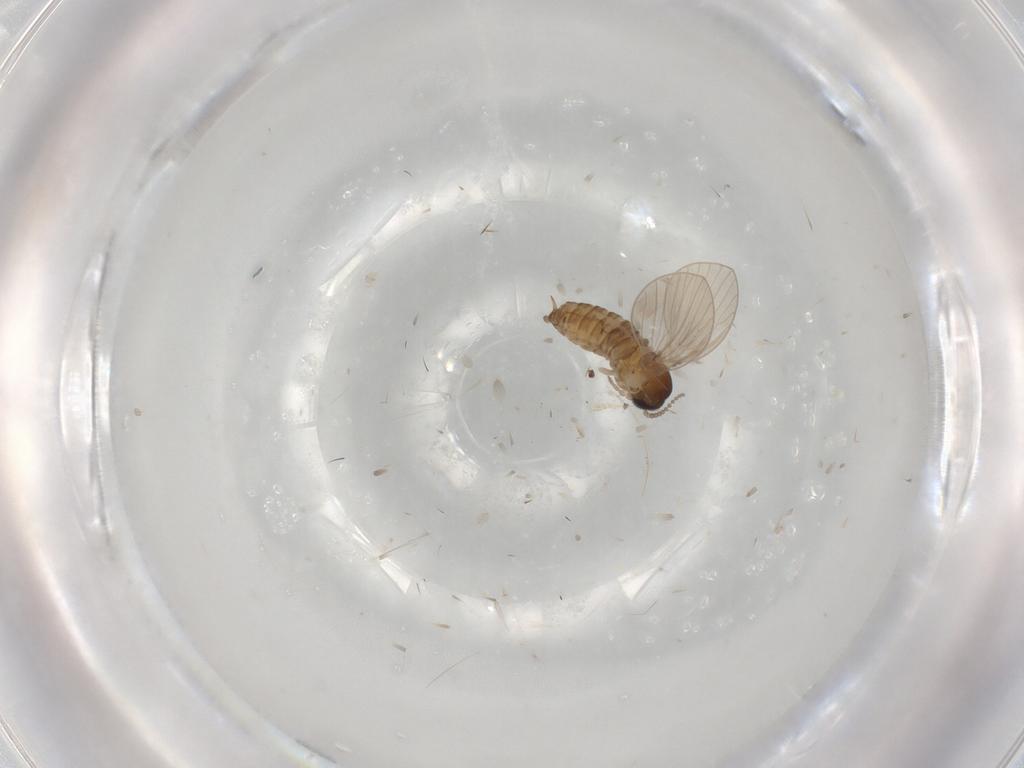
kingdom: Animalia
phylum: Arthropoda
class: Insecta
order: Diptera
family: Psychodidae
